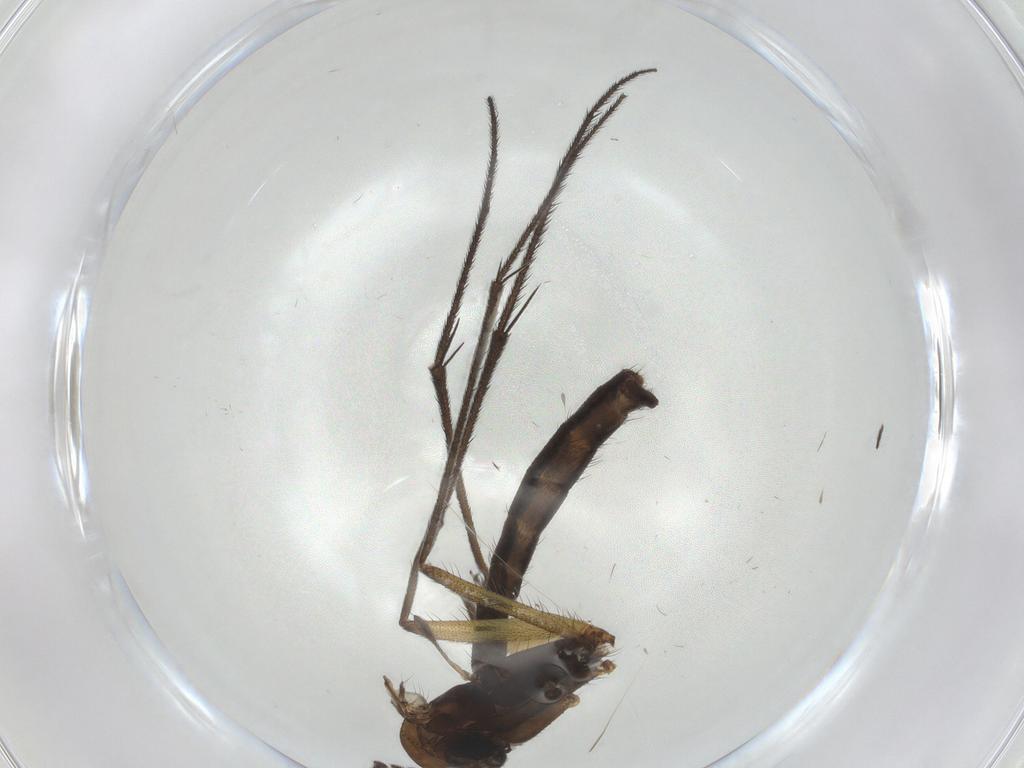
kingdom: Animalia
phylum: Arthropoda
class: Insecta
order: Diptera
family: Ditomyiidae
